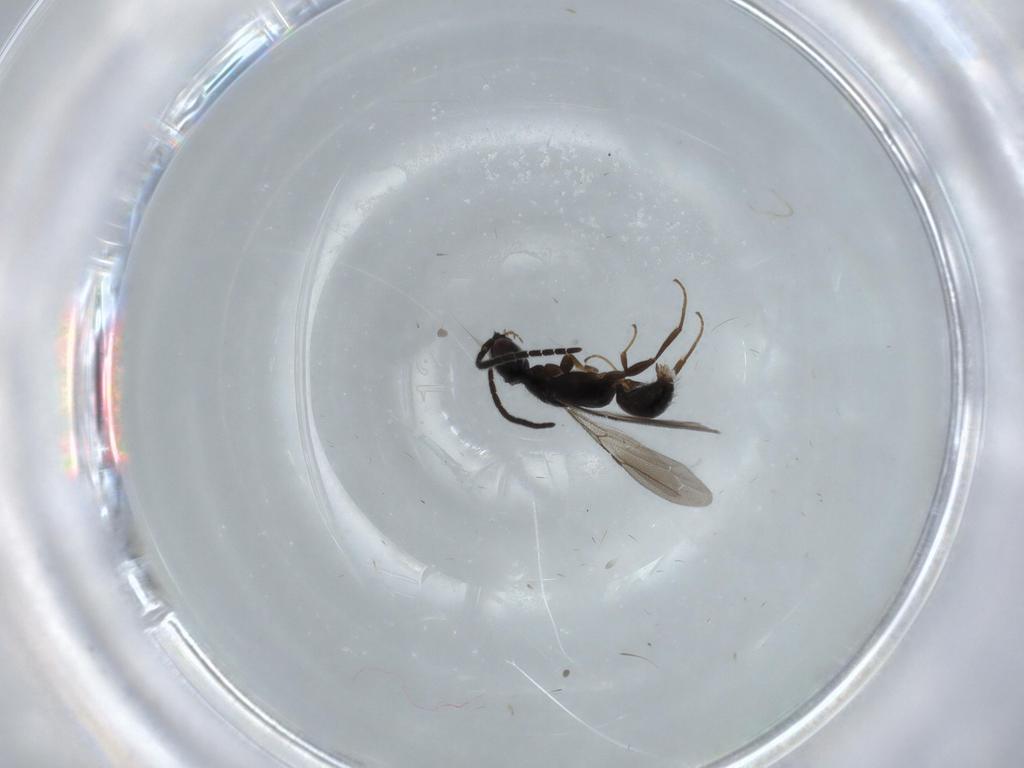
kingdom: Animalia
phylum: Arthropoda
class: Insecta
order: Hymenoptera
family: Bethylidae
